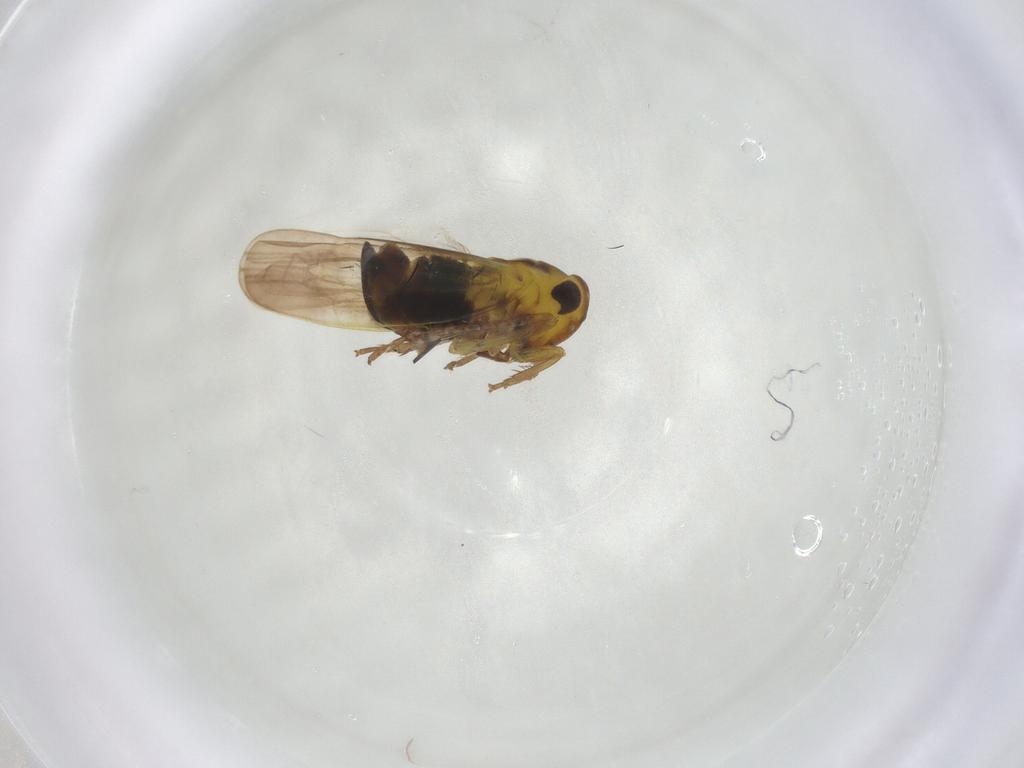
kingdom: Animalia
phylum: Arthropoda
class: Insecta
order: Hemiptera
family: Cicadellidae
